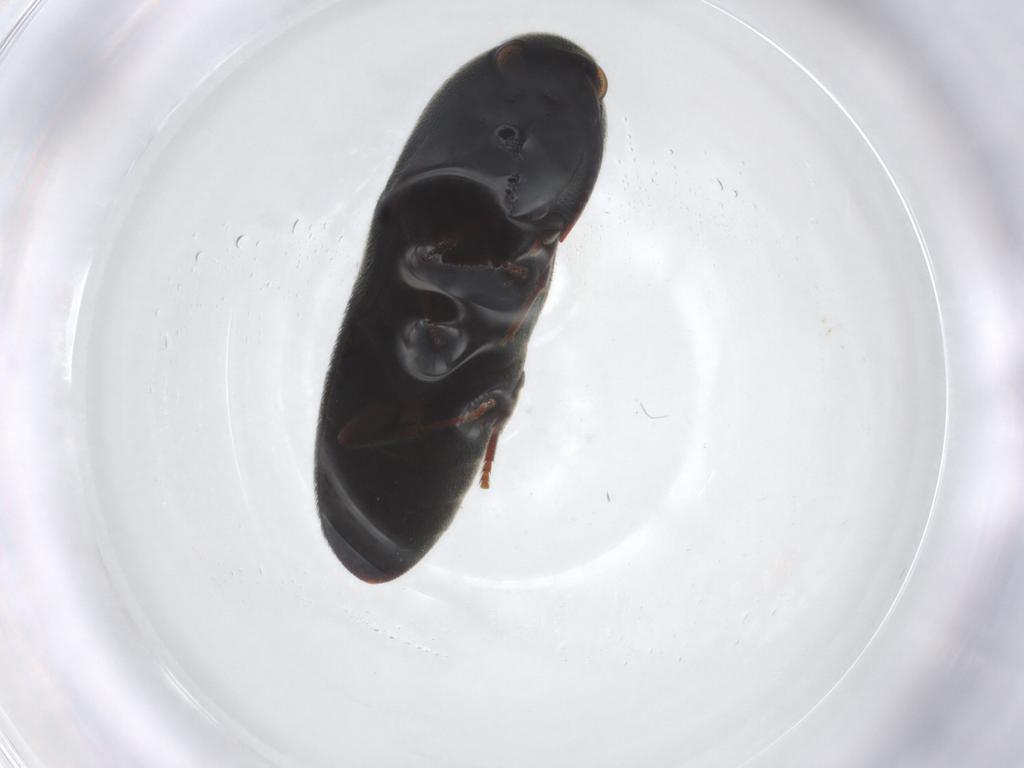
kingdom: Animalia
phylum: Arthropoda
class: Insecta
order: Coleoptera
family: Eucnemidae
